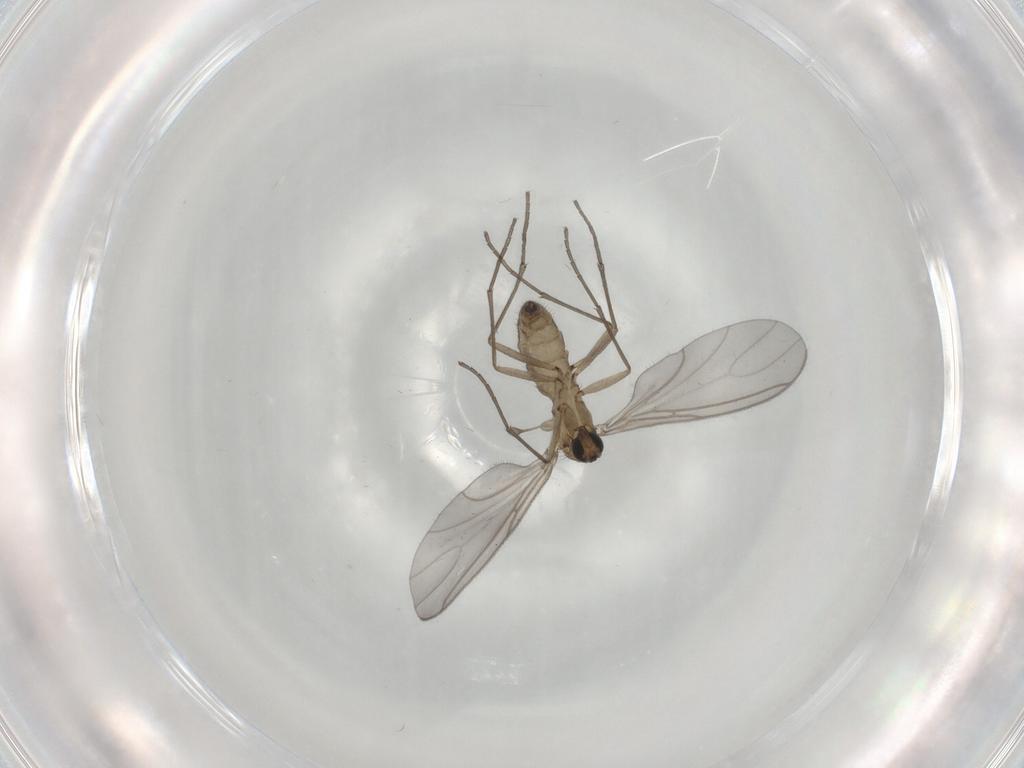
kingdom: Animalia
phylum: Arthropoda
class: Insecta
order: Diptera
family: Sciaridae
